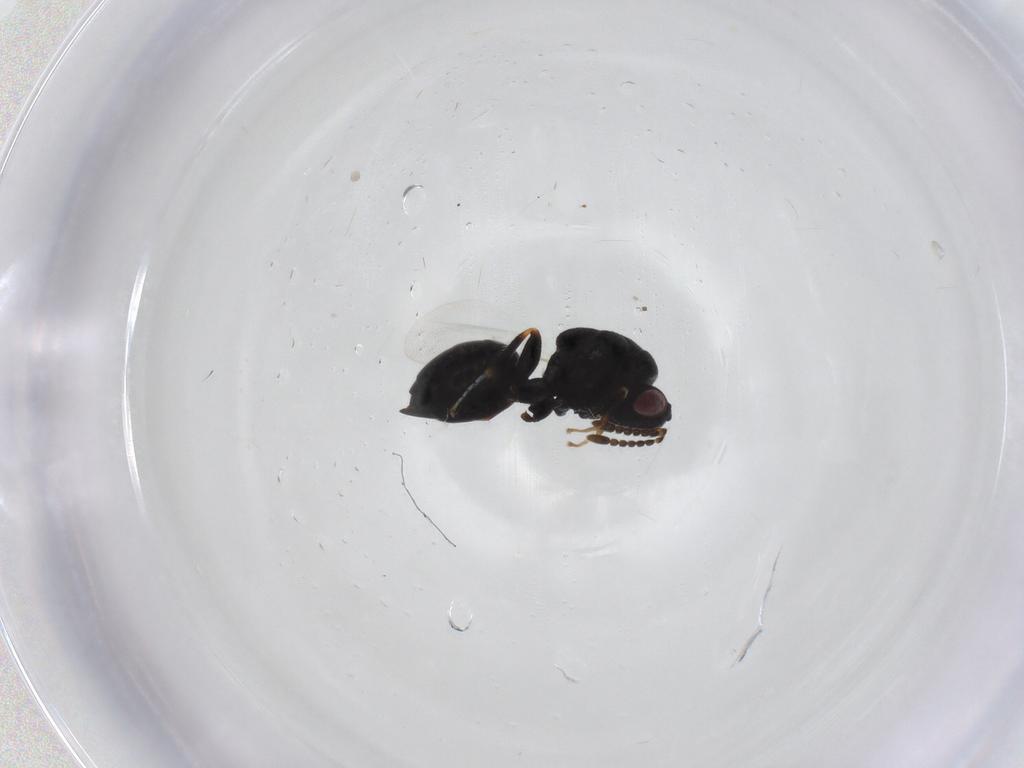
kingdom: Animalia
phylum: Arthropoda
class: Insecta
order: Hymenoptera
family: Eurytomidae
